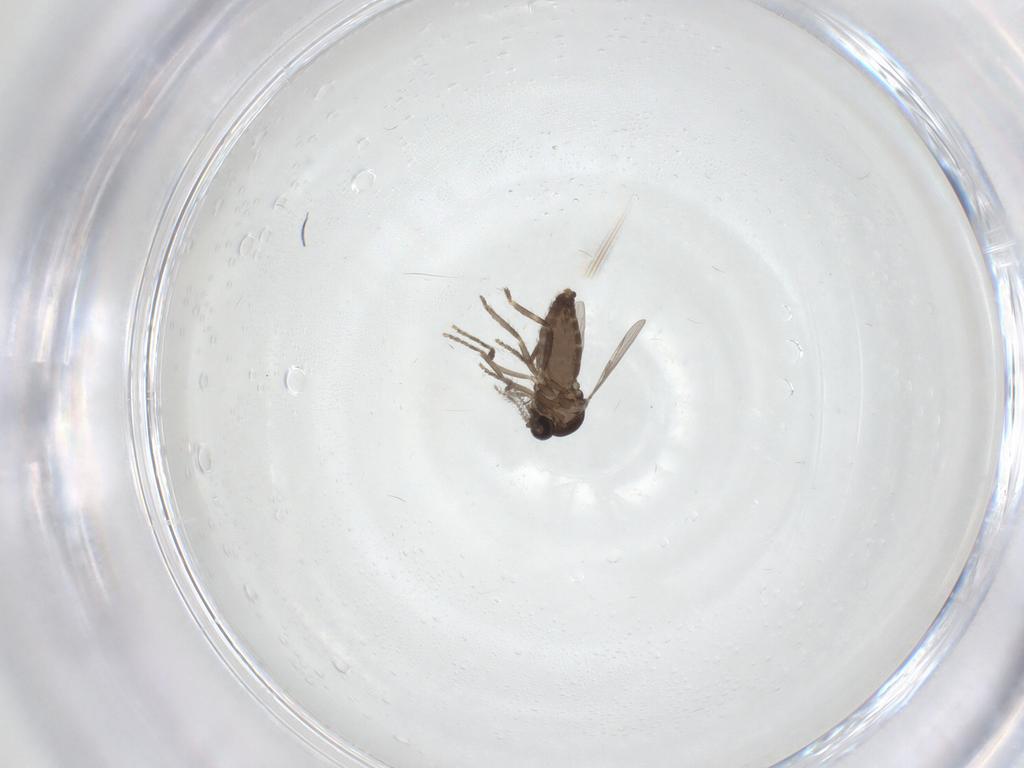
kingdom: Animalia
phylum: Arthropoda
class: Insecta
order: Diptera
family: Ceratopogonidae
